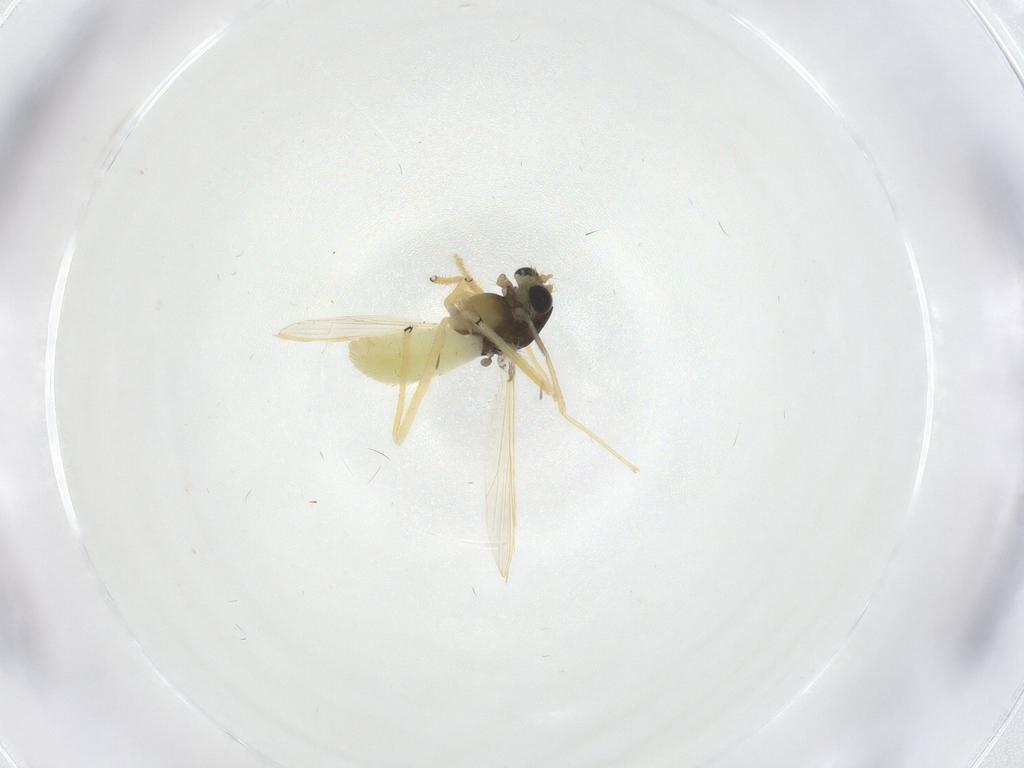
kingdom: Animalia
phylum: Arthropoda
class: Insecta
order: Diptera
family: Chironomidae
